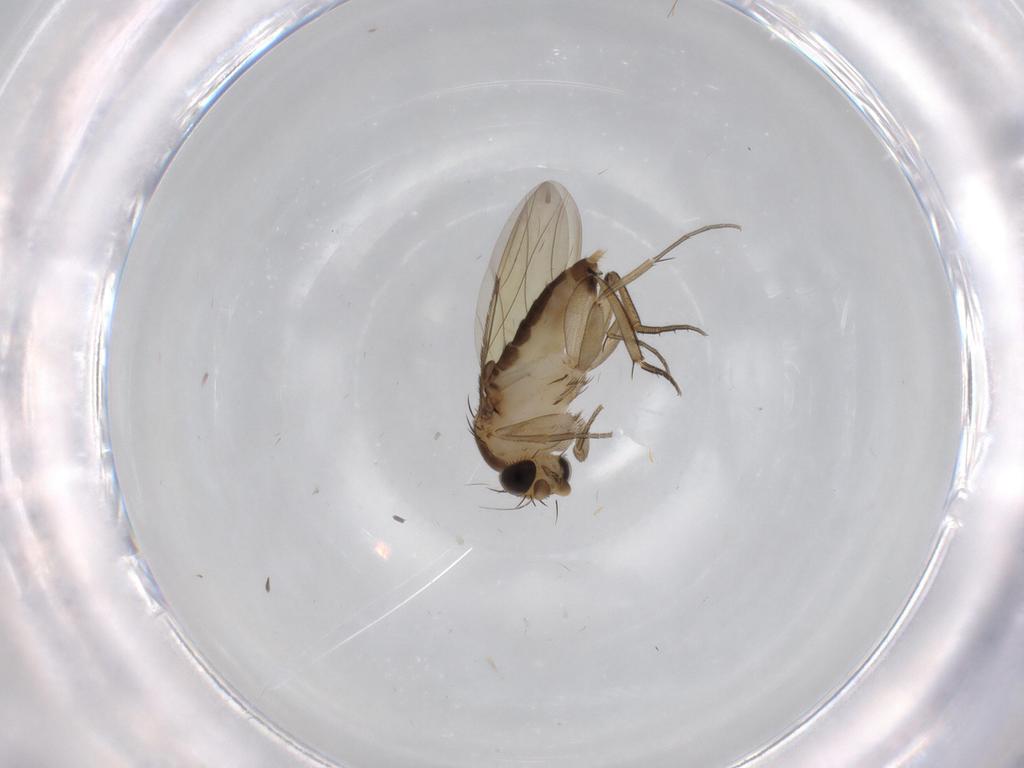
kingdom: Animalia
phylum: Arthropoda
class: Insecta
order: Diptera
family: Phoridae
